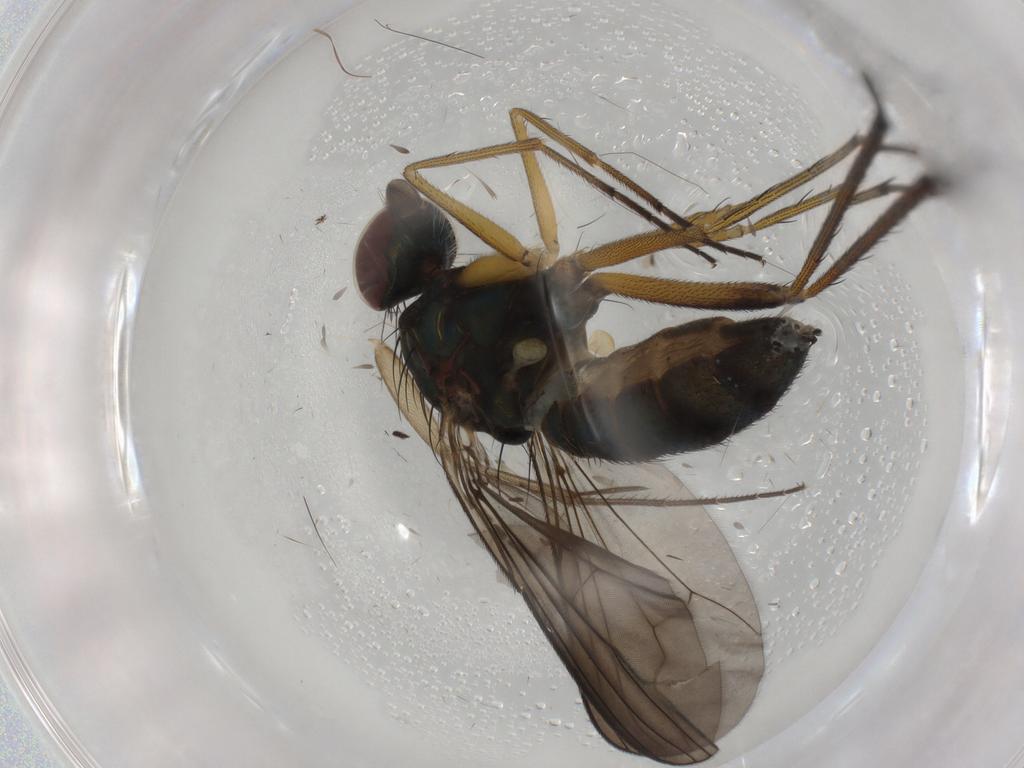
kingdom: Animalia
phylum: Arthropoda
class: Insecta
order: Diptera
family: Dolichopodidae
